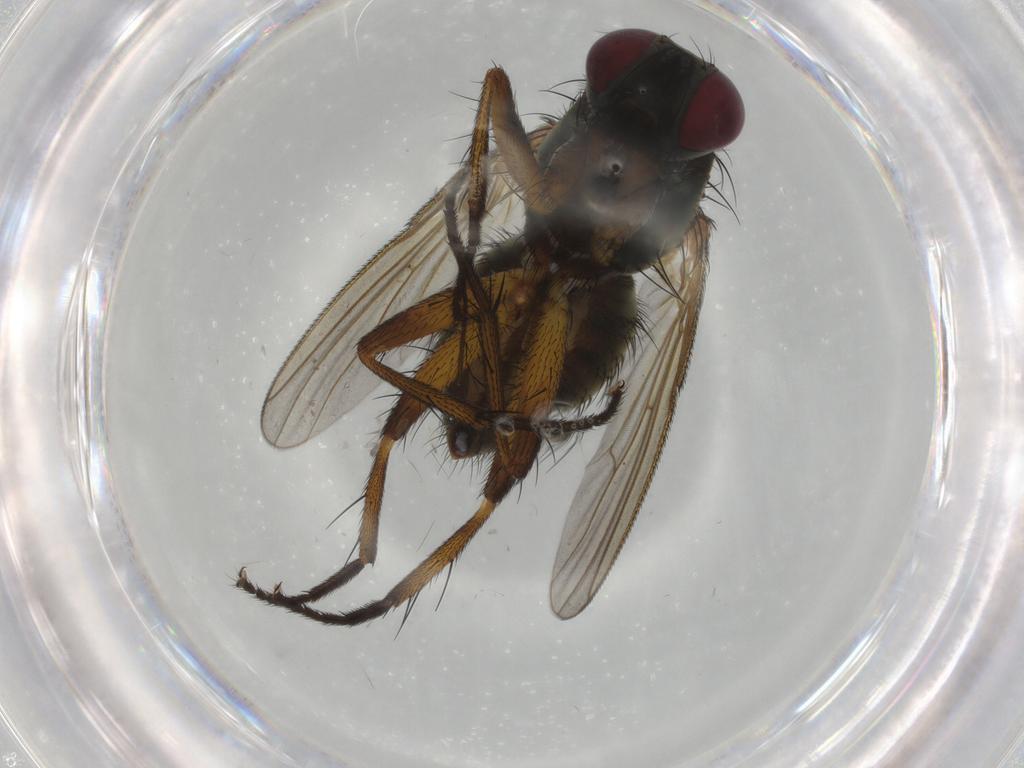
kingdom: Animalia
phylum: Arthropoda
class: Insecta
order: Diptera
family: Muscidae
